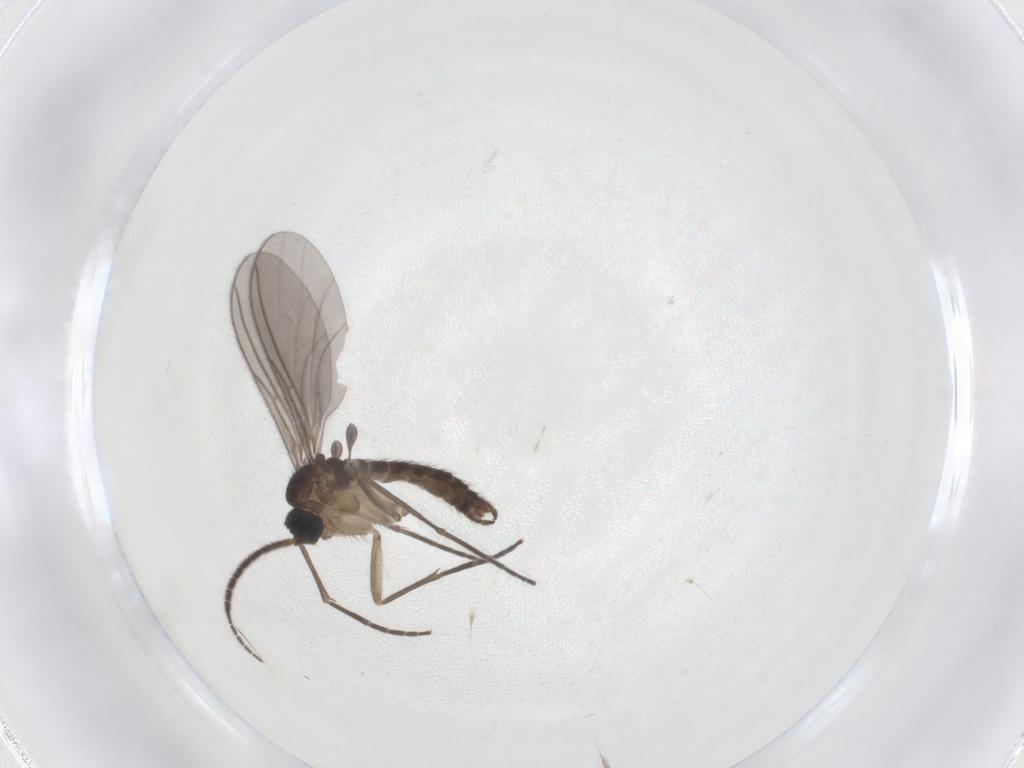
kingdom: Animalia
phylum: Arthropoda
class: Insecta
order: Diptera
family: Sciaridae
